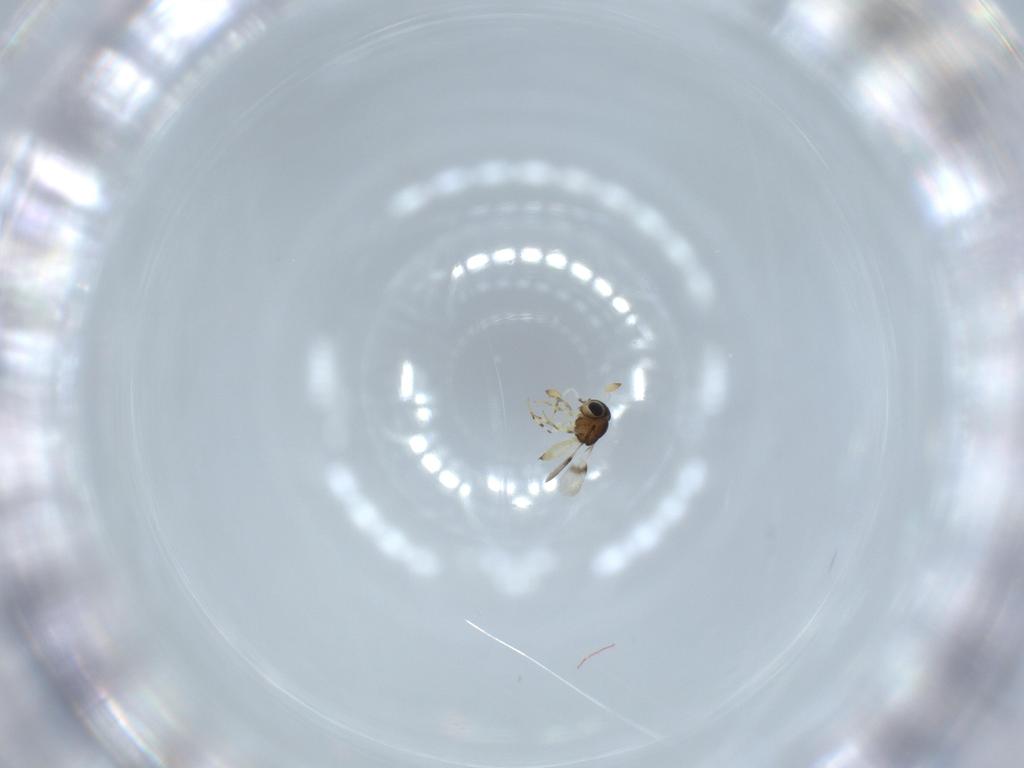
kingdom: Animalia
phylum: Arthropoda
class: Insecta
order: Hymenoptera
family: Scelionidae
